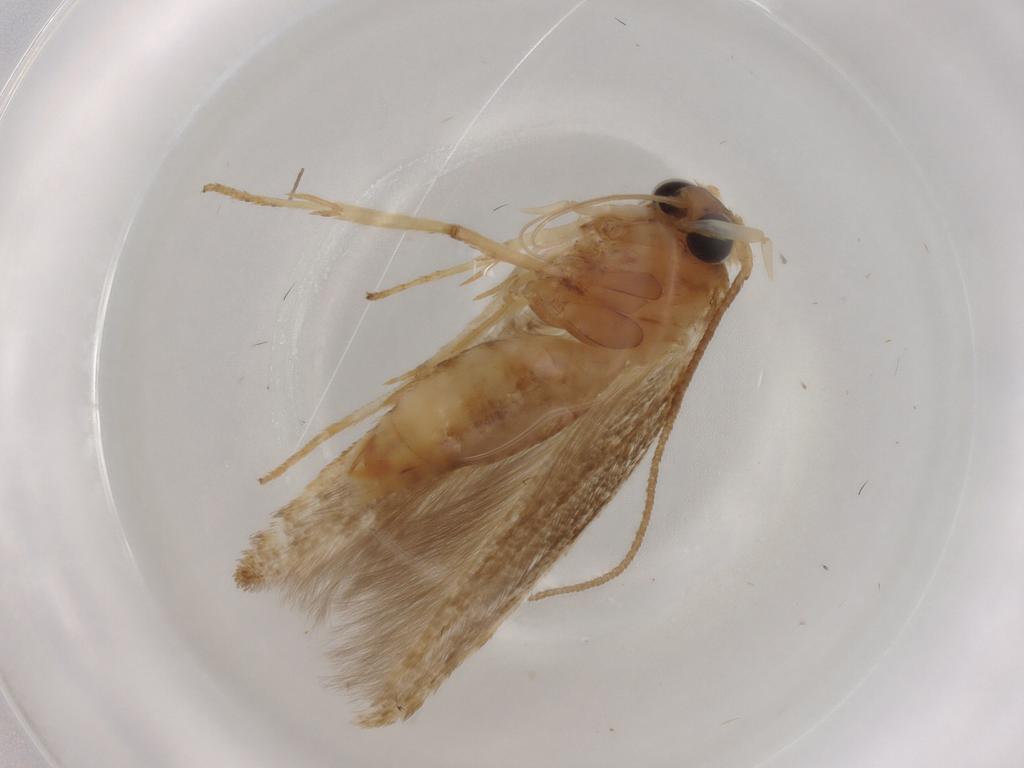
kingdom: Animalia
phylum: Arthropoda
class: Insecta
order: Lepidoptera
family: Blastobasidae
